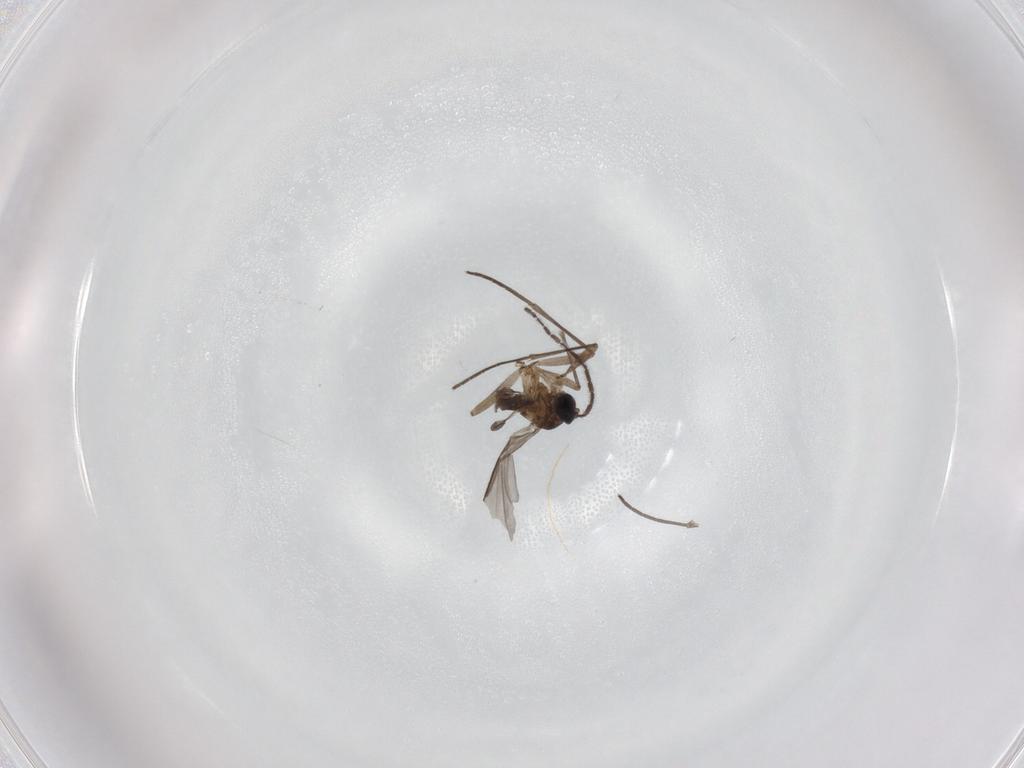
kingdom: Animalia
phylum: Arthropoda
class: Insecta
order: Diptera
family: Sciaridae
